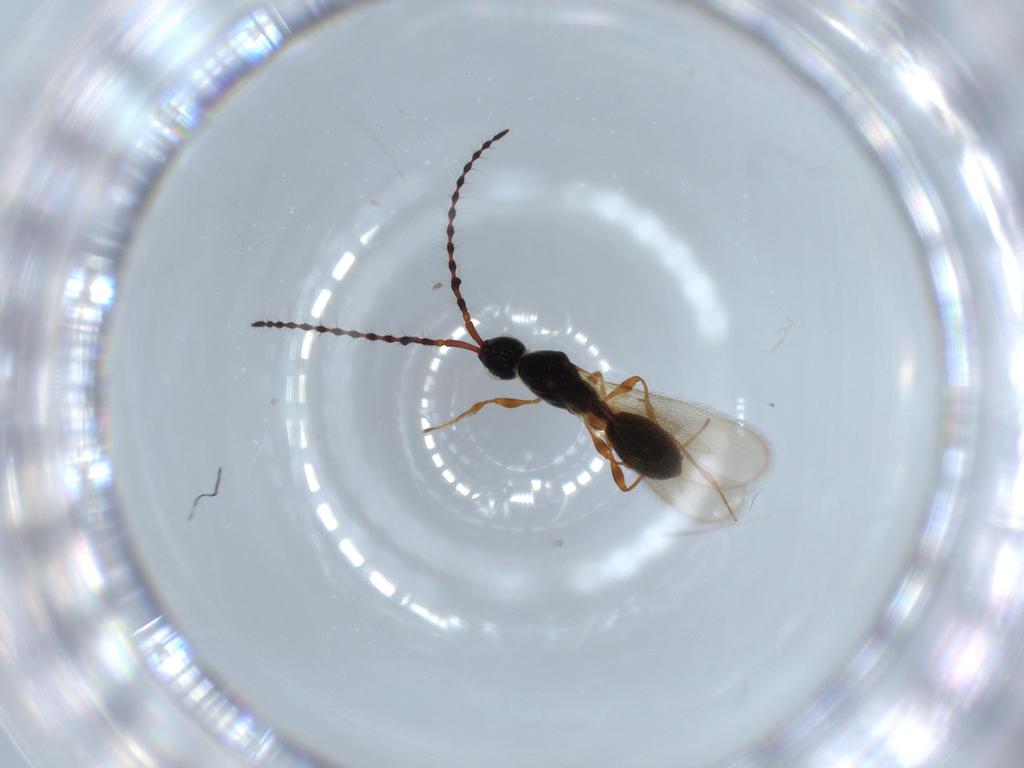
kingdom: Animalia
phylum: Arthropoda
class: Insecta
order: Hymenoptera
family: Diapriidae
